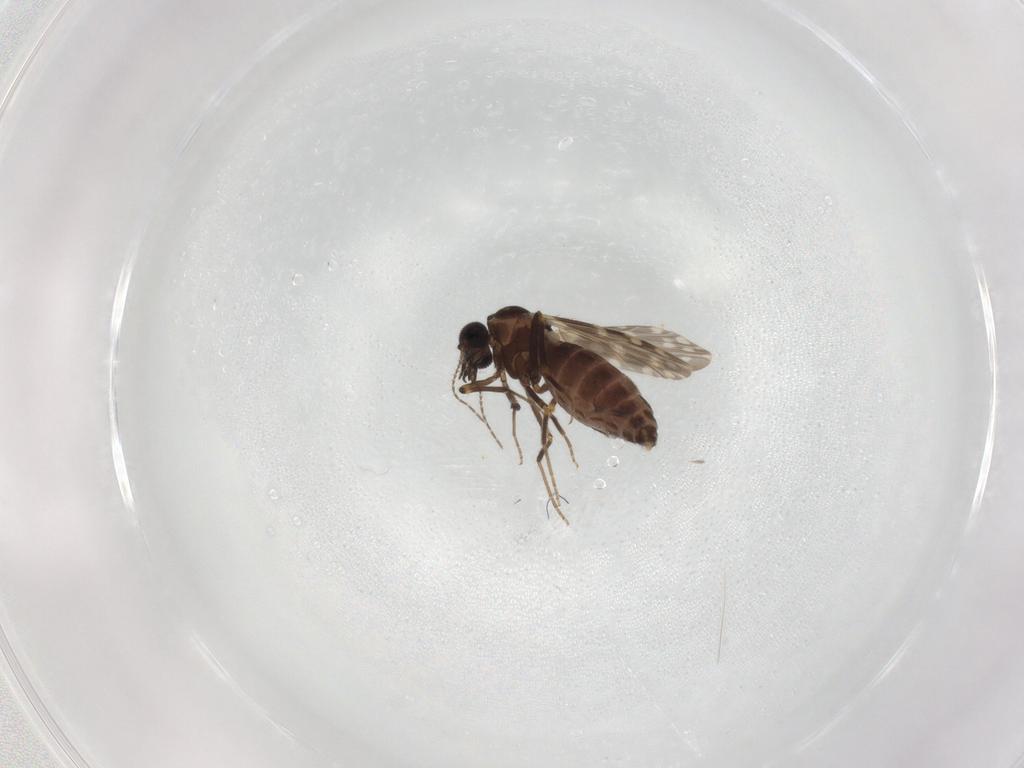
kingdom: Animalia
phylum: Arthropoda
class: Insecta
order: Diptera
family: Ceratopogonidae
